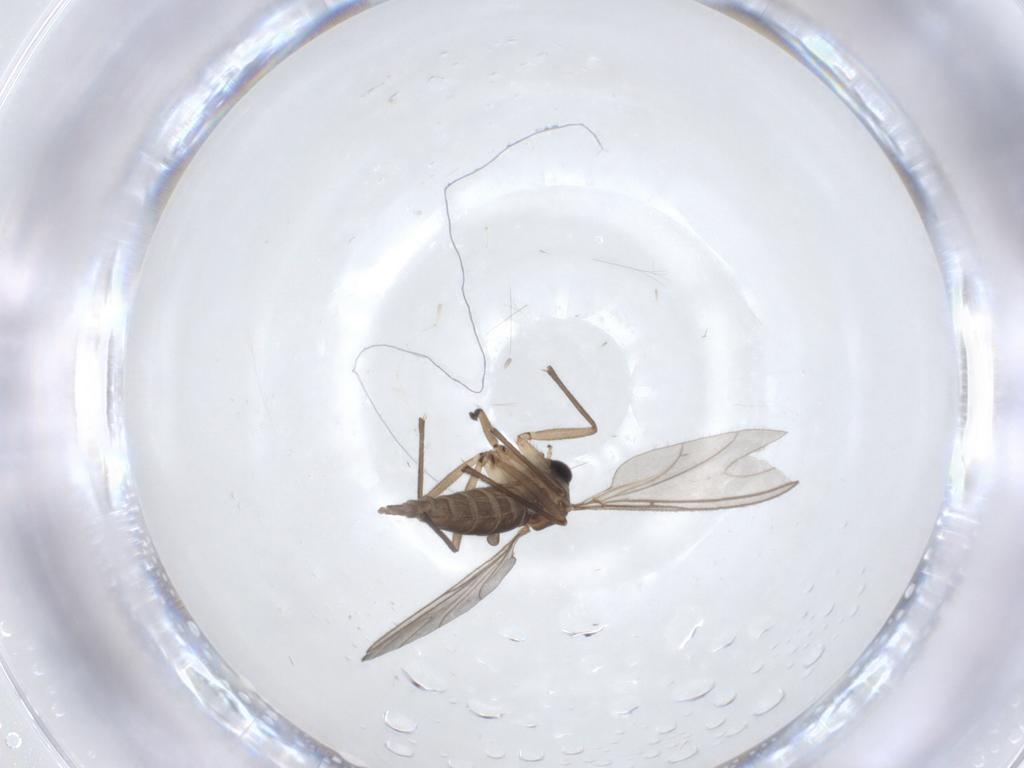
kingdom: Animalia
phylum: Arthropoda
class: Insecta
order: Diptera
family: Sciaridae
